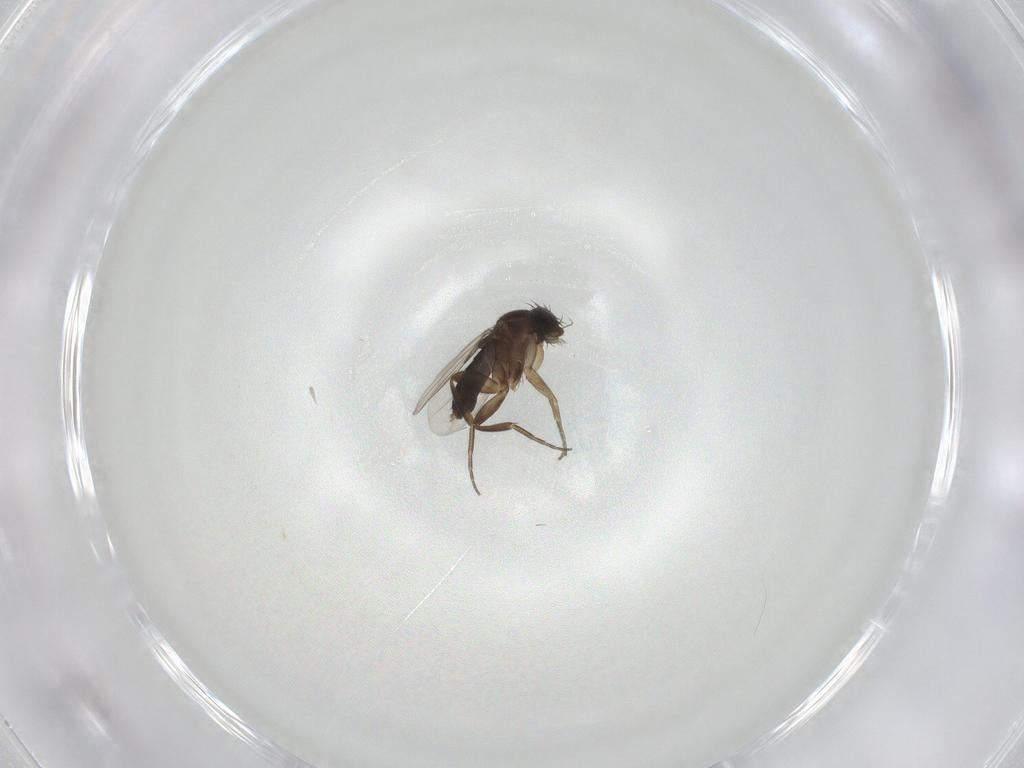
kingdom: Animalia
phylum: Arthropoda
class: Insecta
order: Diptera
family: Phoridae
